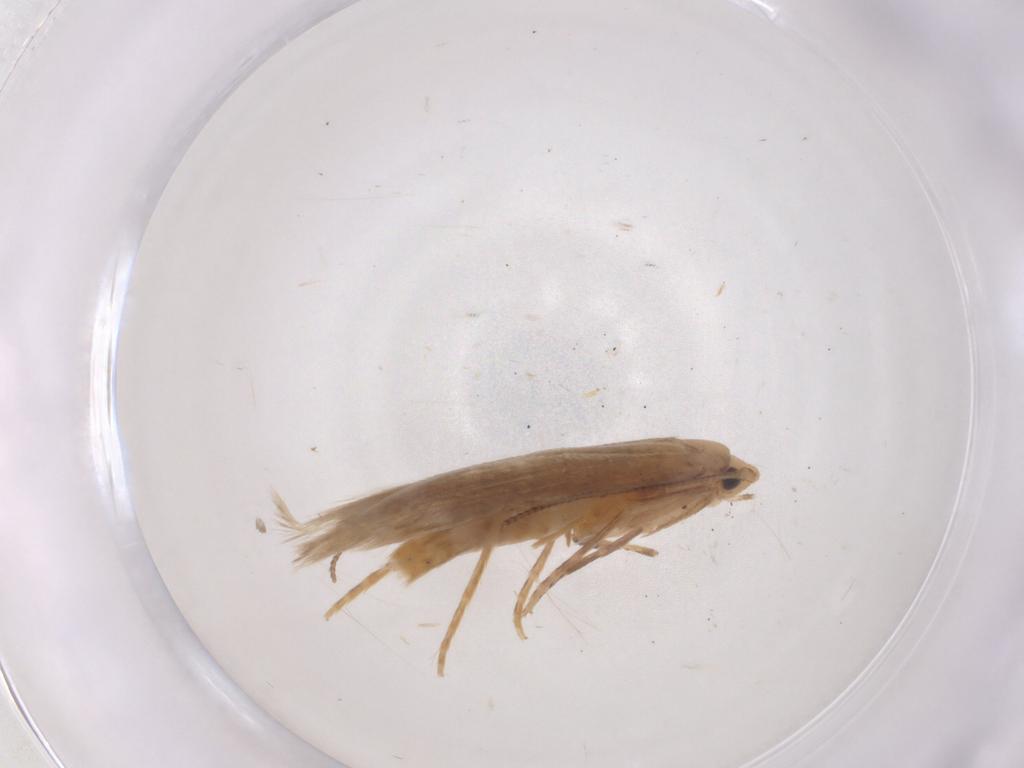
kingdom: Animalia
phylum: Arthropoda
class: Insecta
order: Lepidoptera
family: Tineidae
